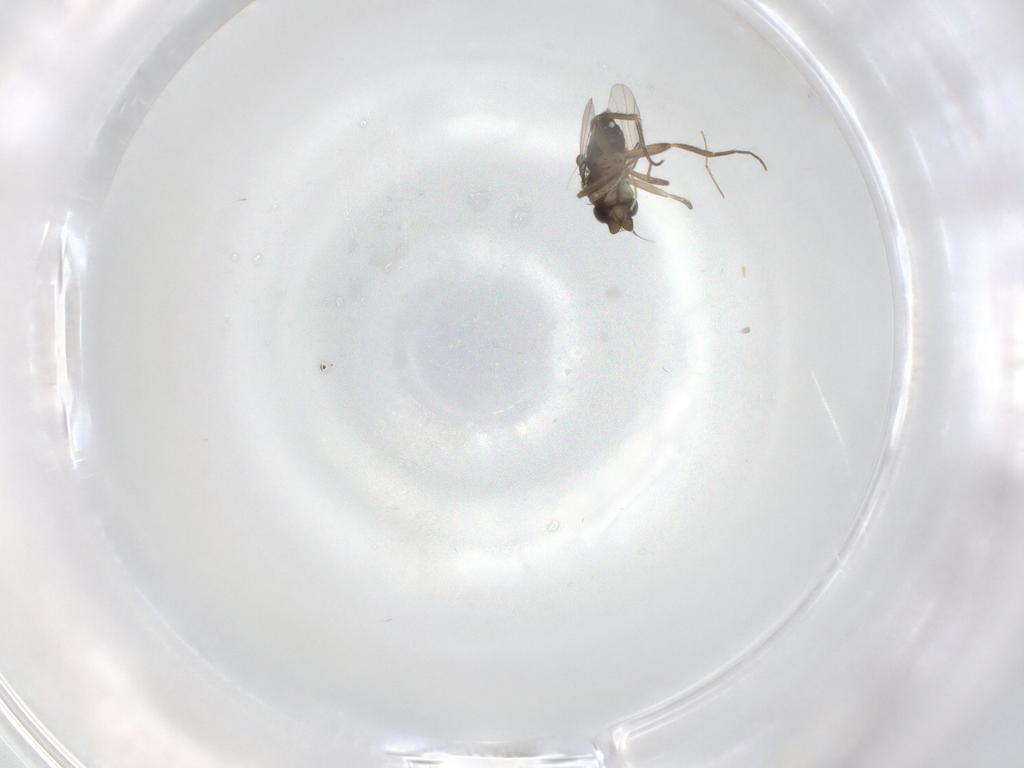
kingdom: Animalia
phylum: Arthropoda
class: Insecta
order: Diptera
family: Phoridae
